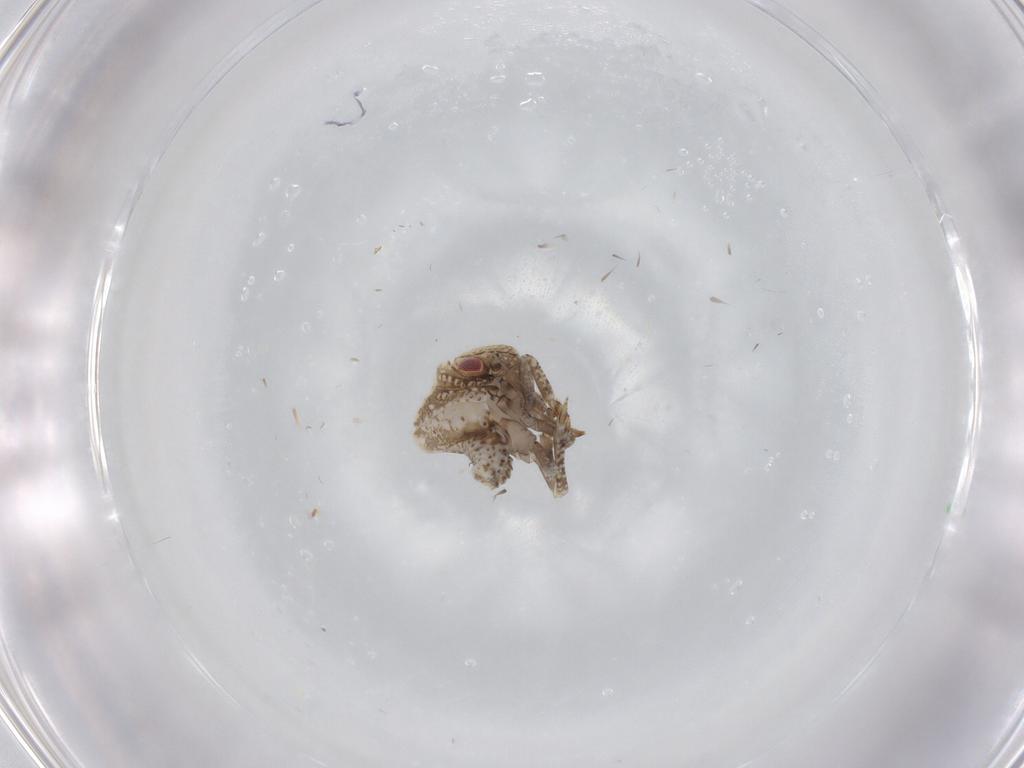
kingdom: Animalia
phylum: Arthropoda
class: Insecta
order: Hemiptera
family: Acanaloniidae
